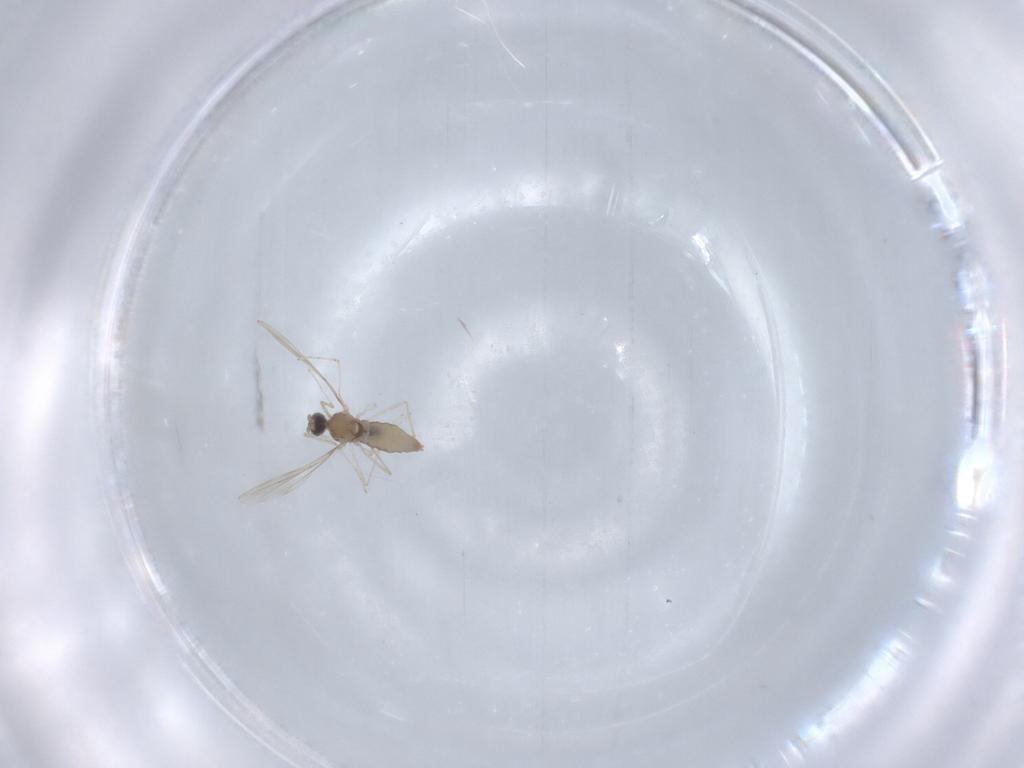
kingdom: Animalia
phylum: Arthropoda
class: Insecta
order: Diptera
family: Cecidomyiidae
